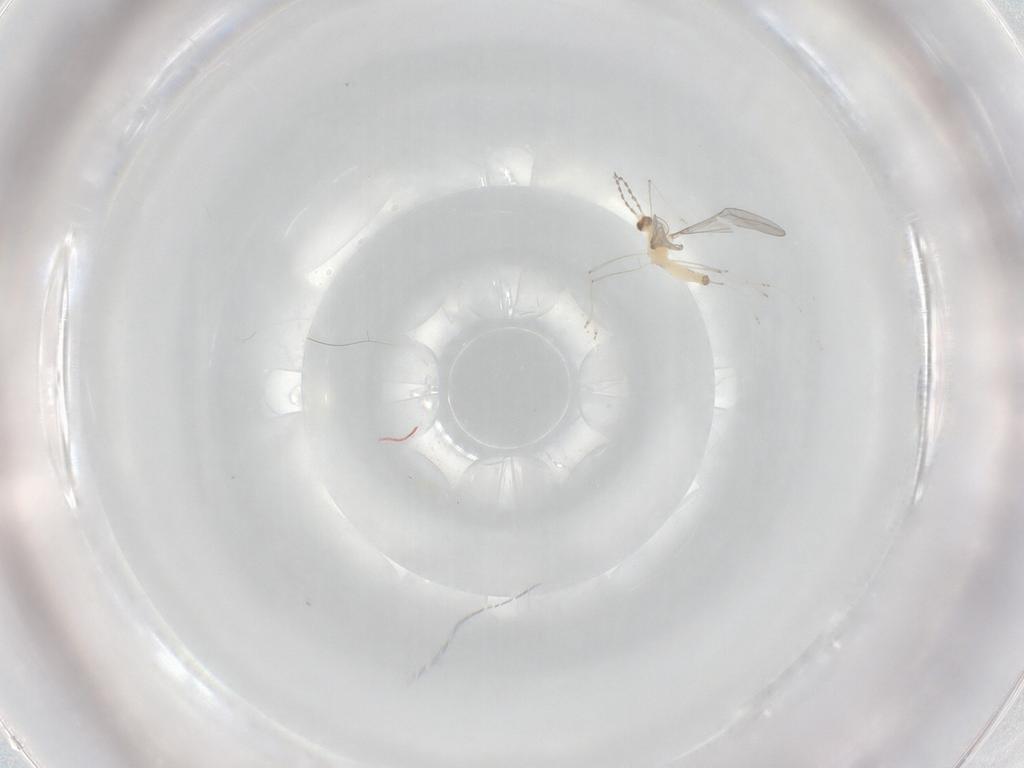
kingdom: Animalia
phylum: Arthropoda
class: Insecta
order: Diptera
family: Cecidomyiidae
